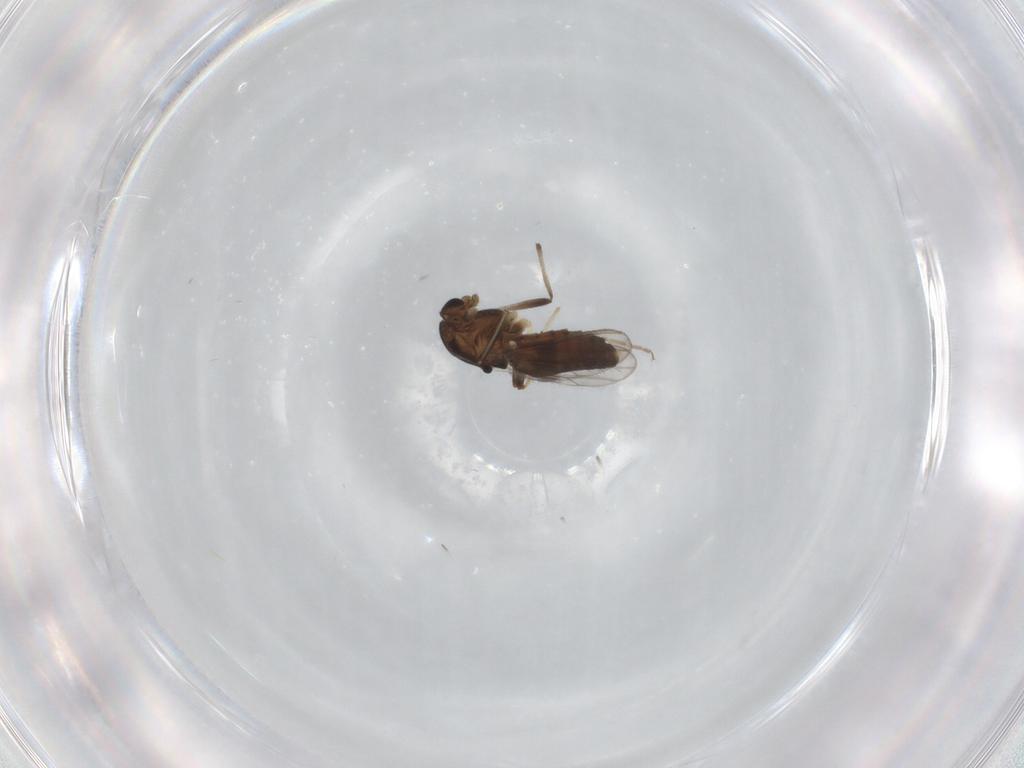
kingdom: Animalia
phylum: Arthropoda
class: Insecta
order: Diptera
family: Chironomidae
